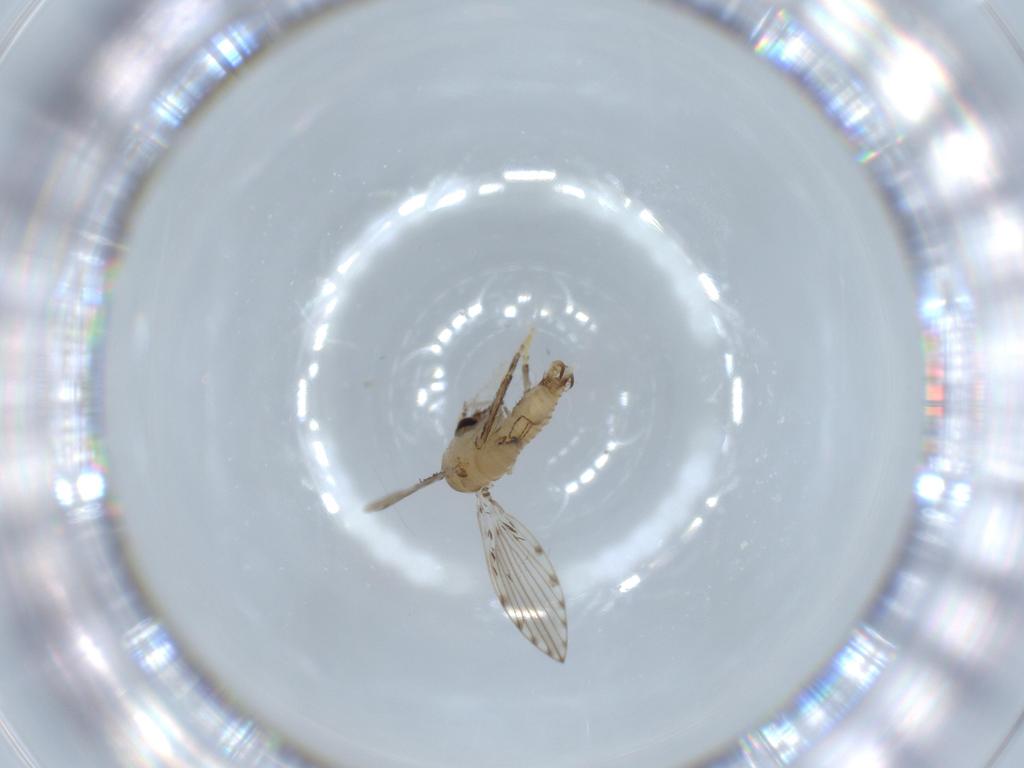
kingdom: Animalia
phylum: Arthropoda
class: Insecta
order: Diptera
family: Psychodidae
